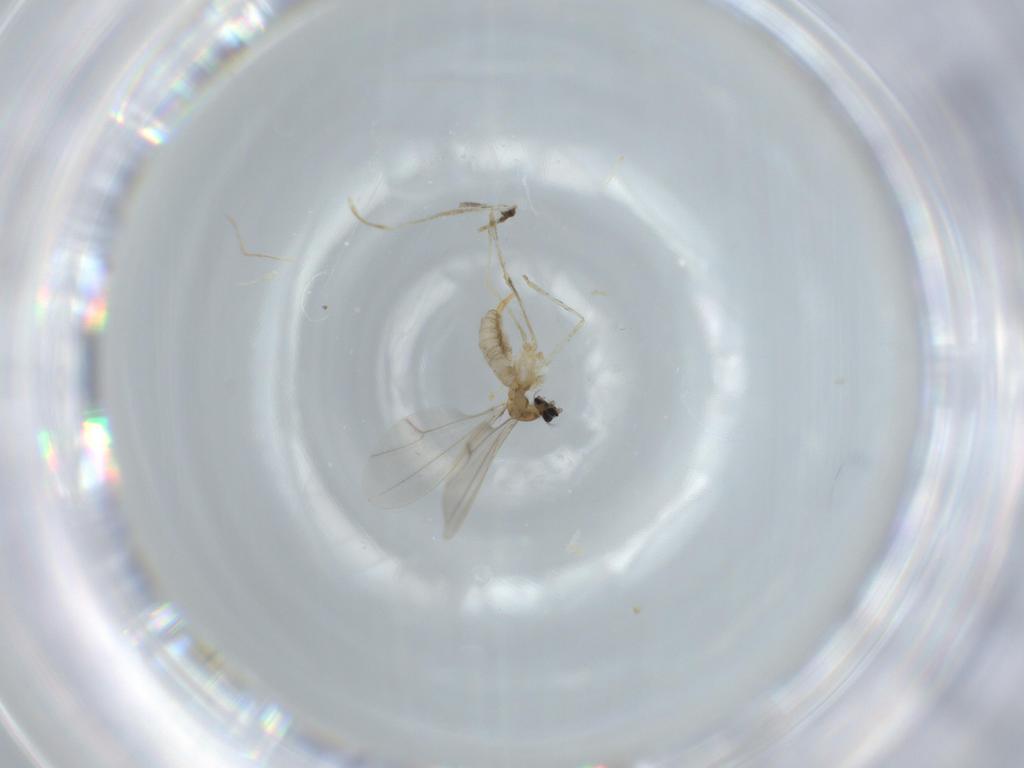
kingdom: Animalia
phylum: Arthropoda
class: Insecta
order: Diptera
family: Cecidomyiidae
